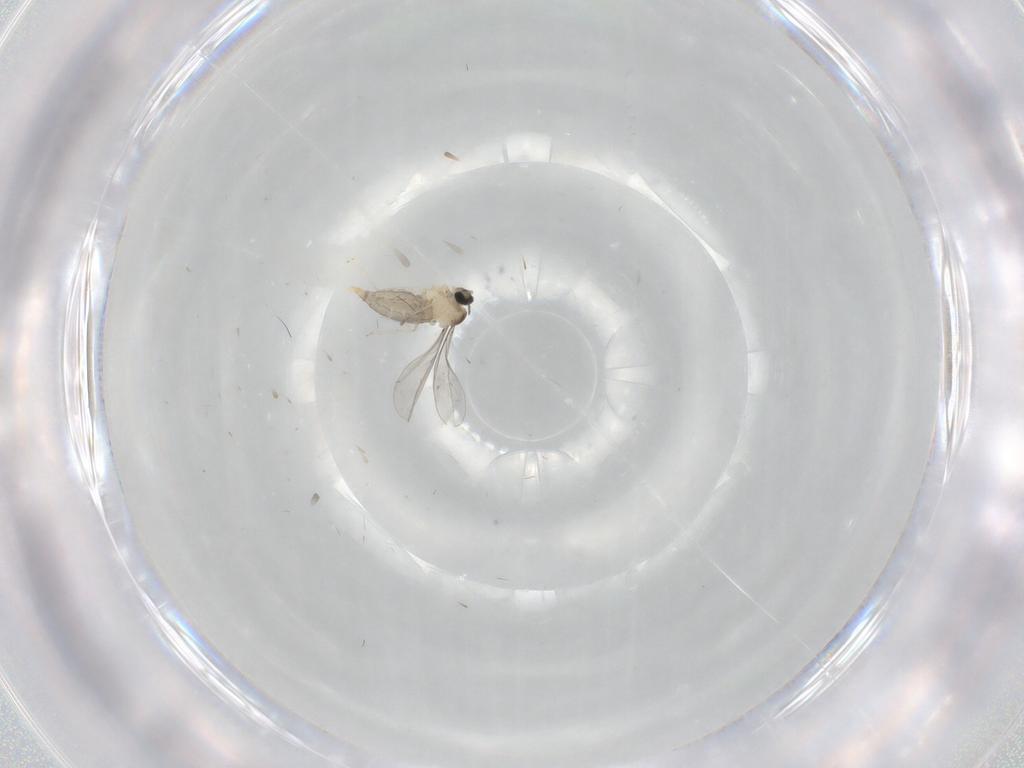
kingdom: Animalia
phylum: Arthropoda
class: Insecta
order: Diptera
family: Cecidomyiidae
